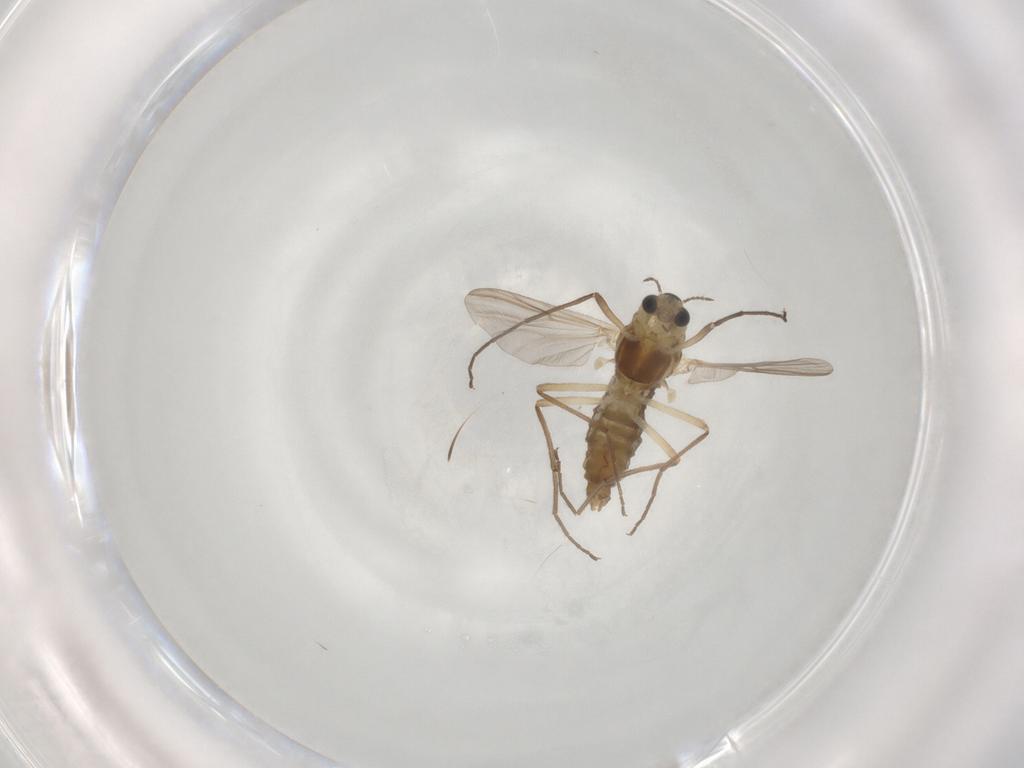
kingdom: Animalia
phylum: Arthropoda
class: Insecta
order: Diptera
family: Chironomidae
